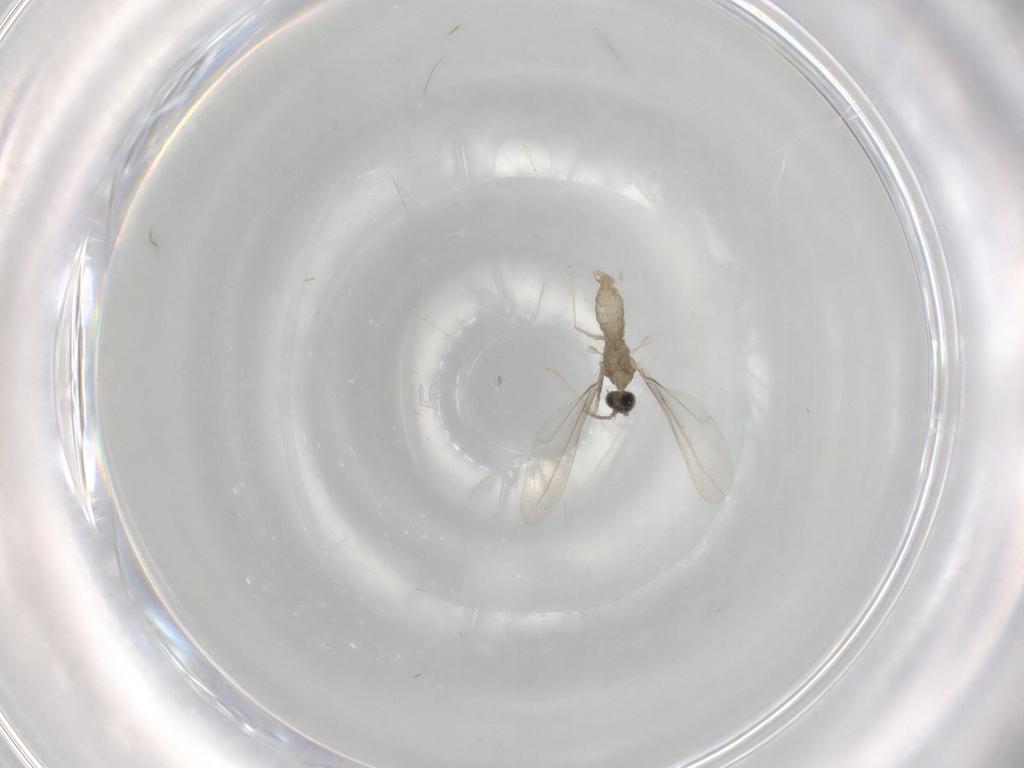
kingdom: Animalia
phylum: Arthropoda
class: Insecta
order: Diptera
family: Cecidomyiidae
